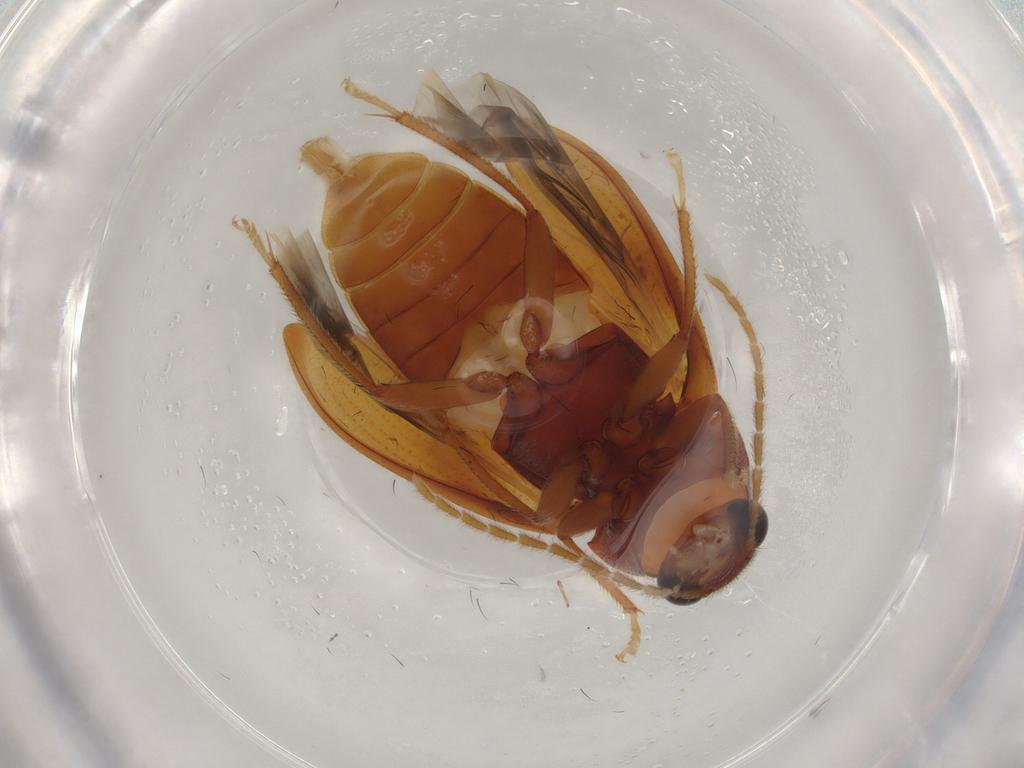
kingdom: Animalia
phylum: Arthropoda
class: Insecta
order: Coleoptera
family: Ptilodactylidae
